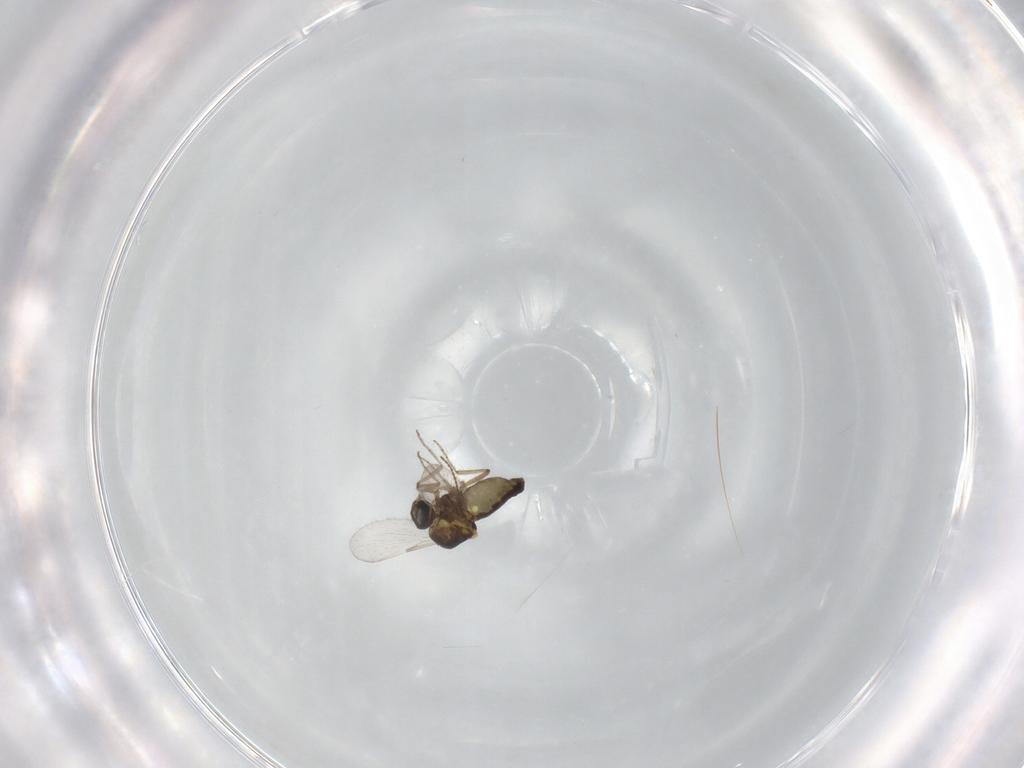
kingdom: Animalia
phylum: Arthropoda
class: Insecta
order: Diptera
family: Ceratopogonidae
